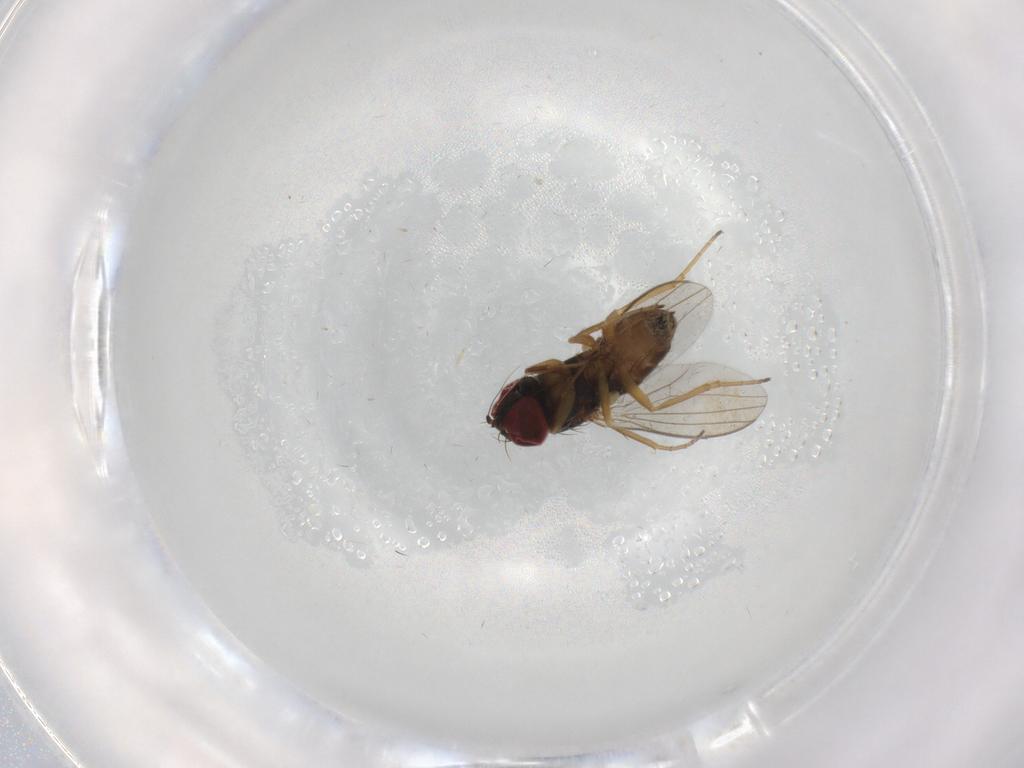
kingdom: Animalia
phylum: Arthropoda
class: Insecta
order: Diptera
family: Dolichopodidae
